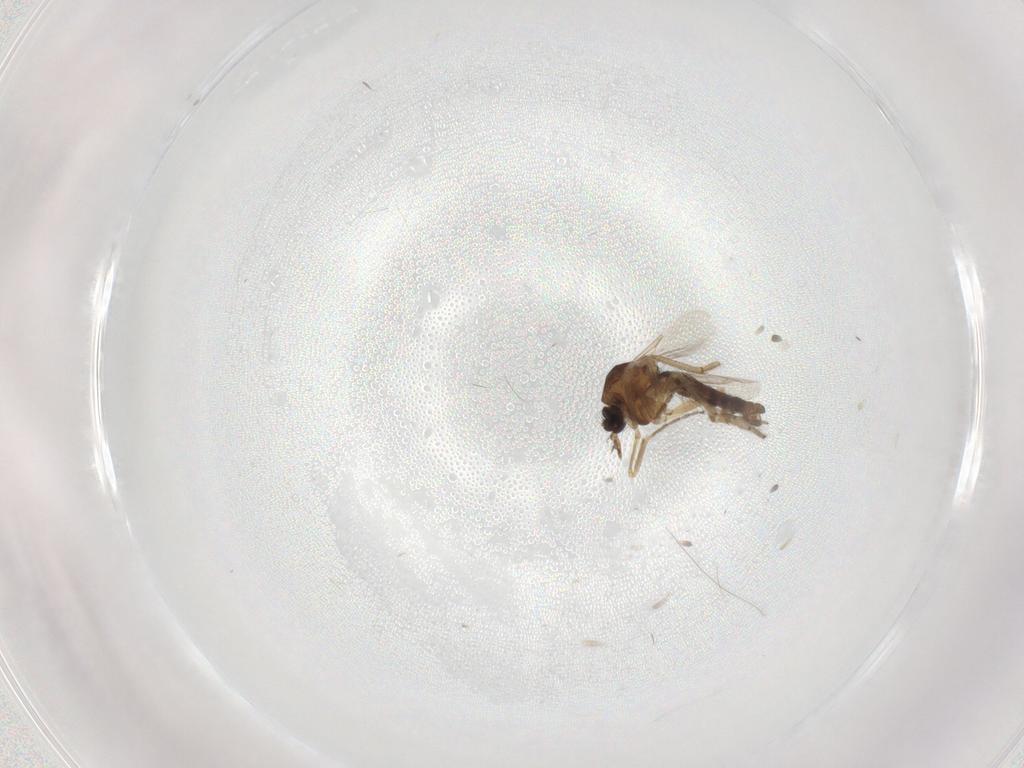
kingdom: Animalia
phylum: Arthropoda
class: Insecta
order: Diptera
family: Ceratopogonidae
